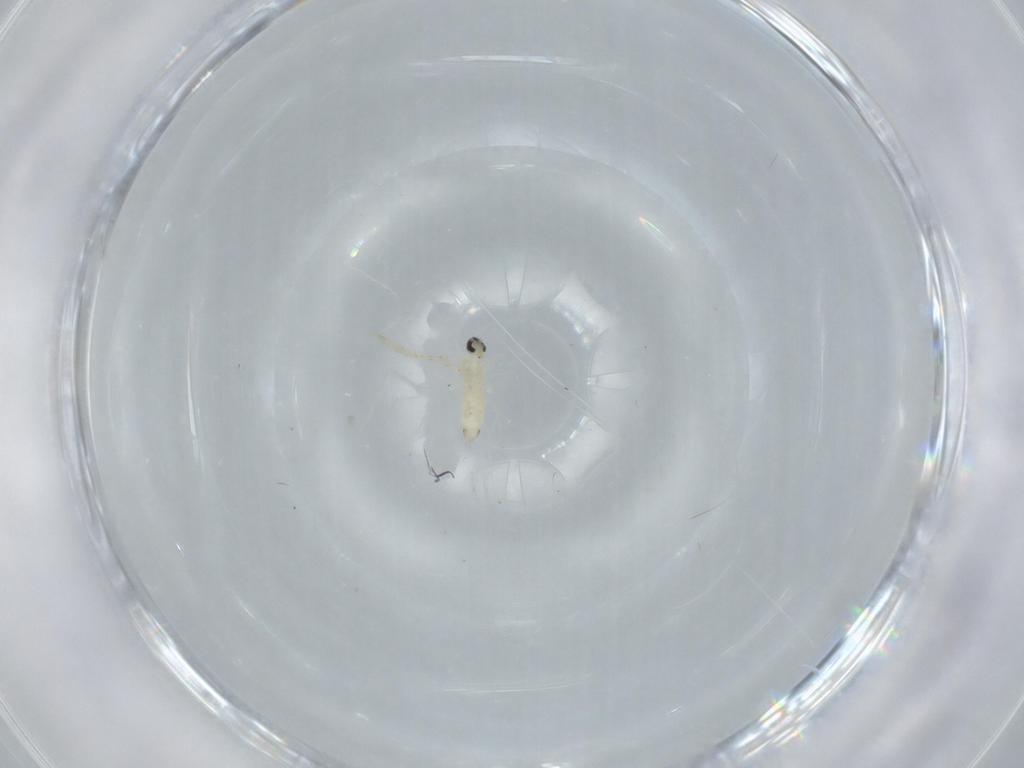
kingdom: Animalia
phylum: Arthropoda
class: Insecta
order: Diptera
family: Cecidomyiidae
